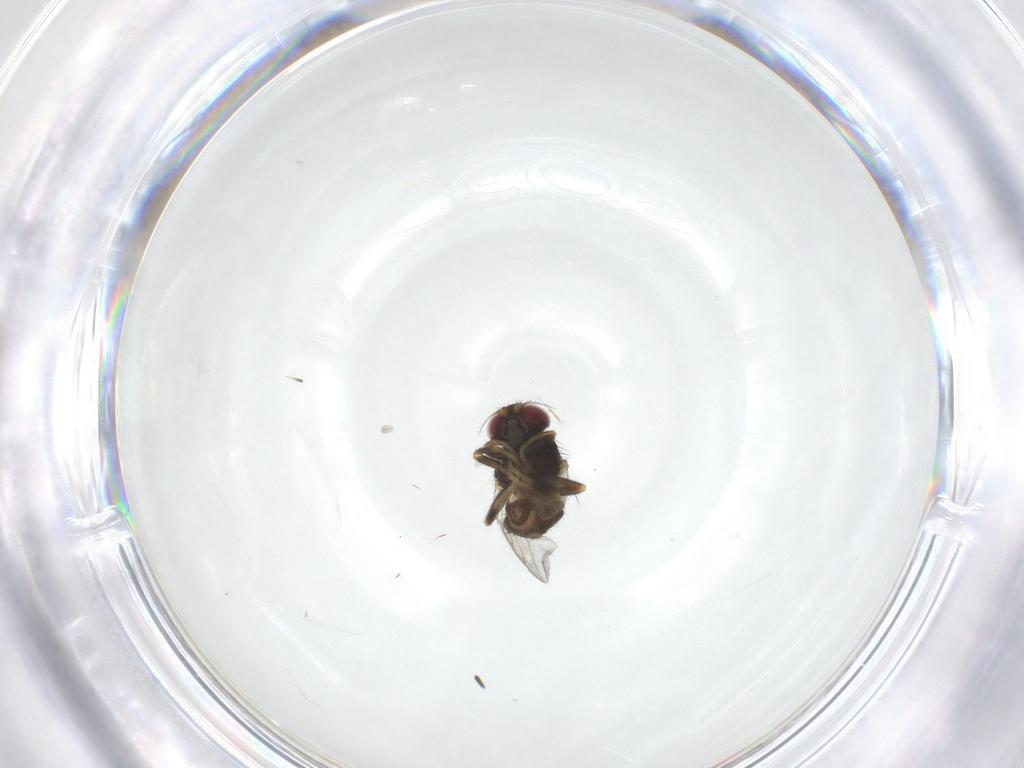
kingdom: Animalia
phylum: Arthropoda
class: Insecta
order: Diptera
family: Chloropidae
